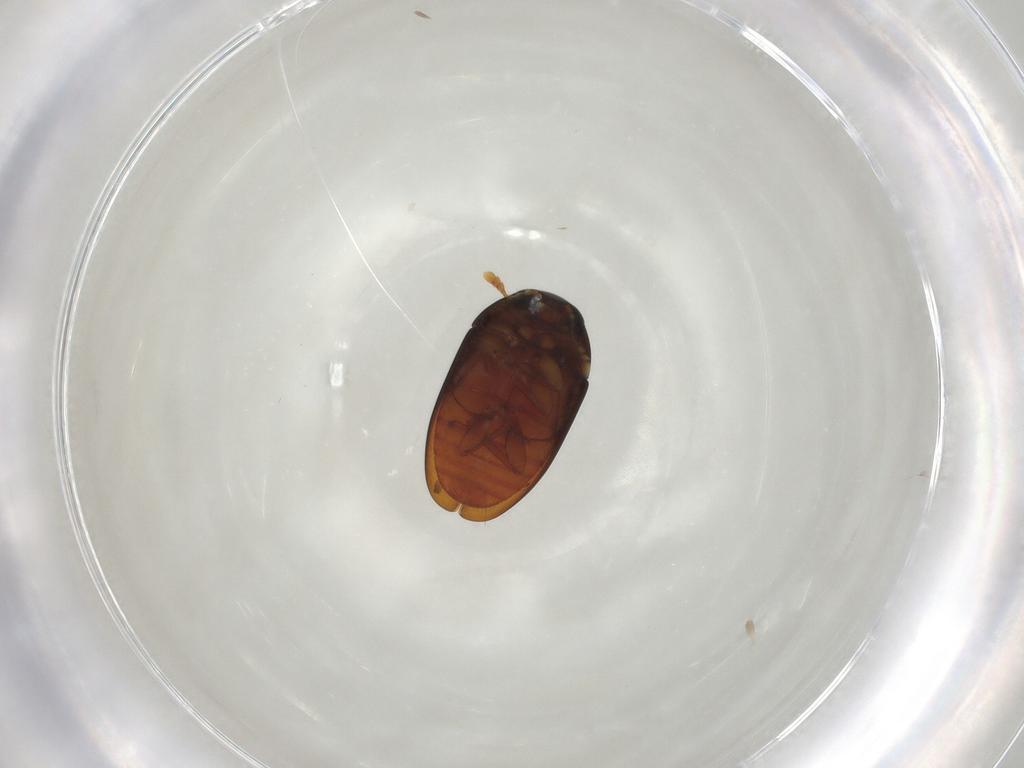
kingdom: Animalia
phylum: Arthropoda
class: Insecta
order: Coleoptera
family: Phalacridae
